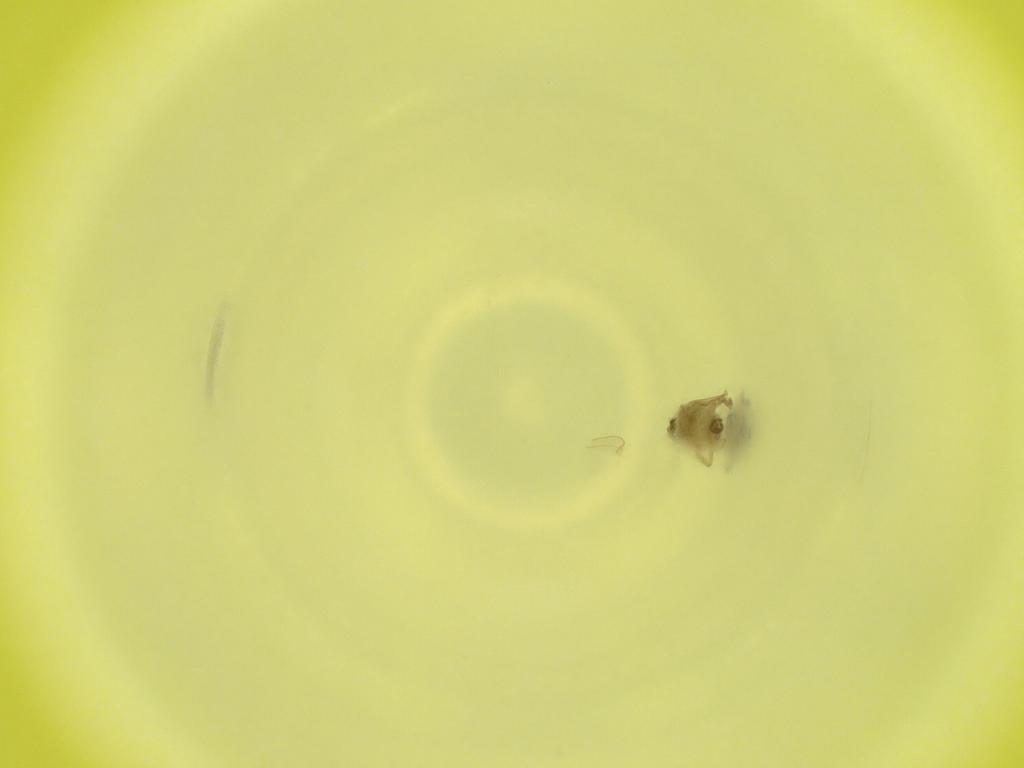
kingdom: Animalia
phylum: Arthropoda
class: Insecta
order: Diptera
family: Cecidomyiidae
